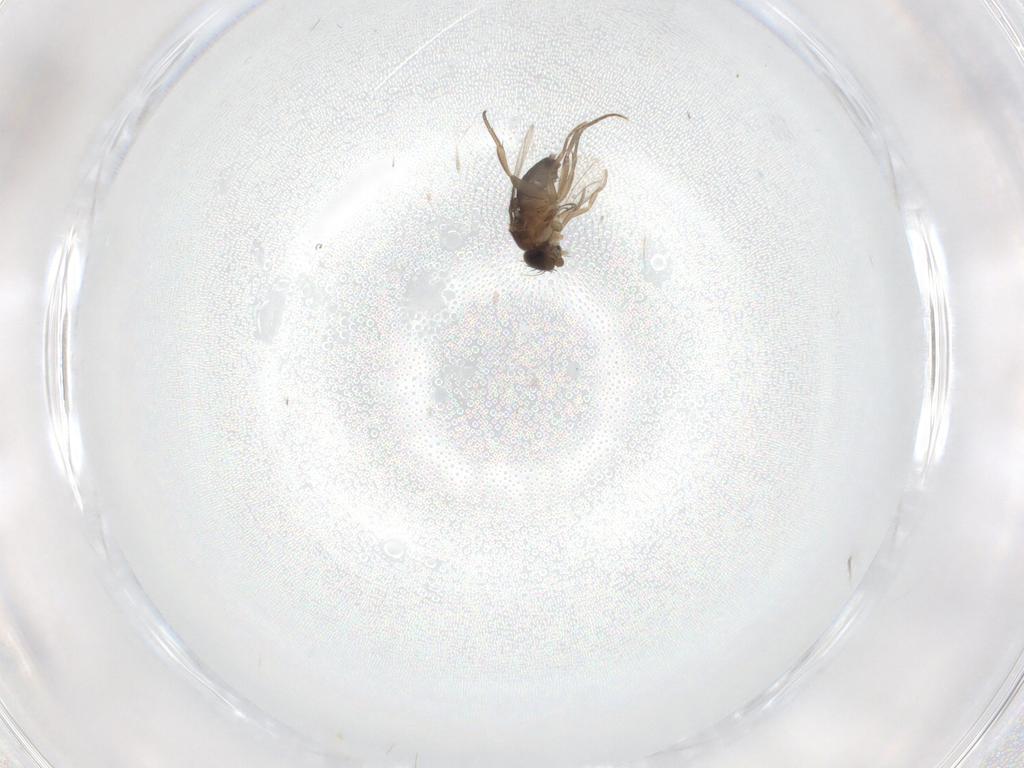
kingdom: Animalia
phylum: Arthropoda
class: Insecta
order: Diptera
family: Phoridae
